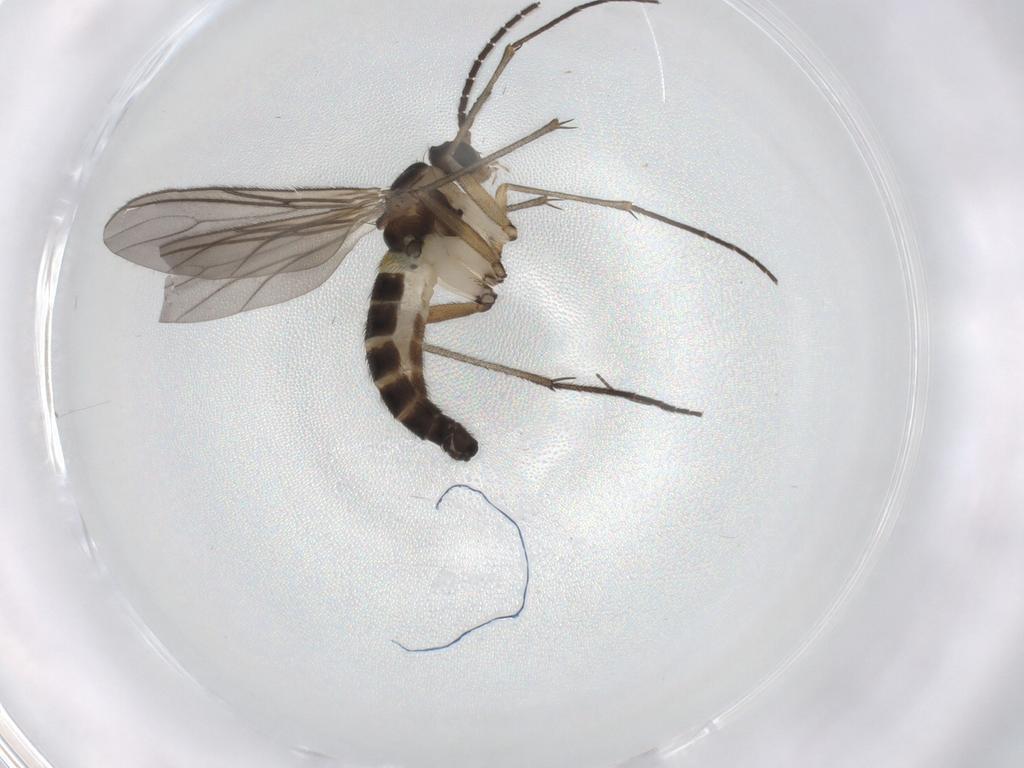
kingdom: Animalia
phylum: Arthropoda
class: Insecta
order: Diptera
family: Sciaridae
